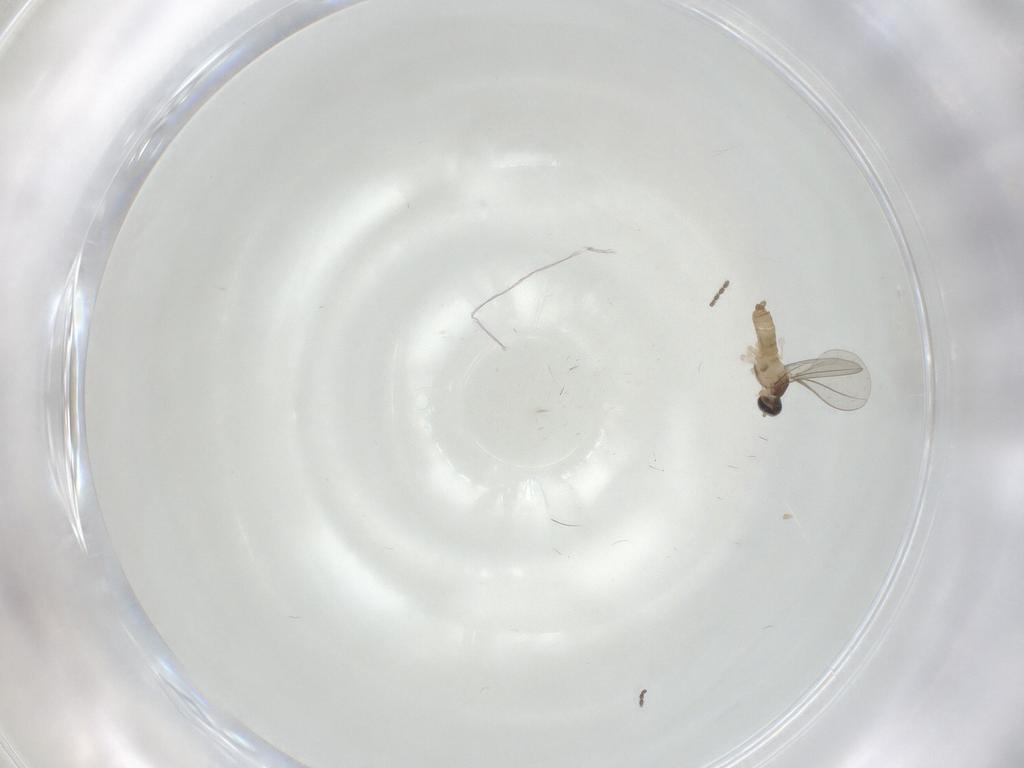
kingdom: Animalia
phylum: Arthropoda
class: Insecta
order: Diptera
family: Cecidomyiidae
